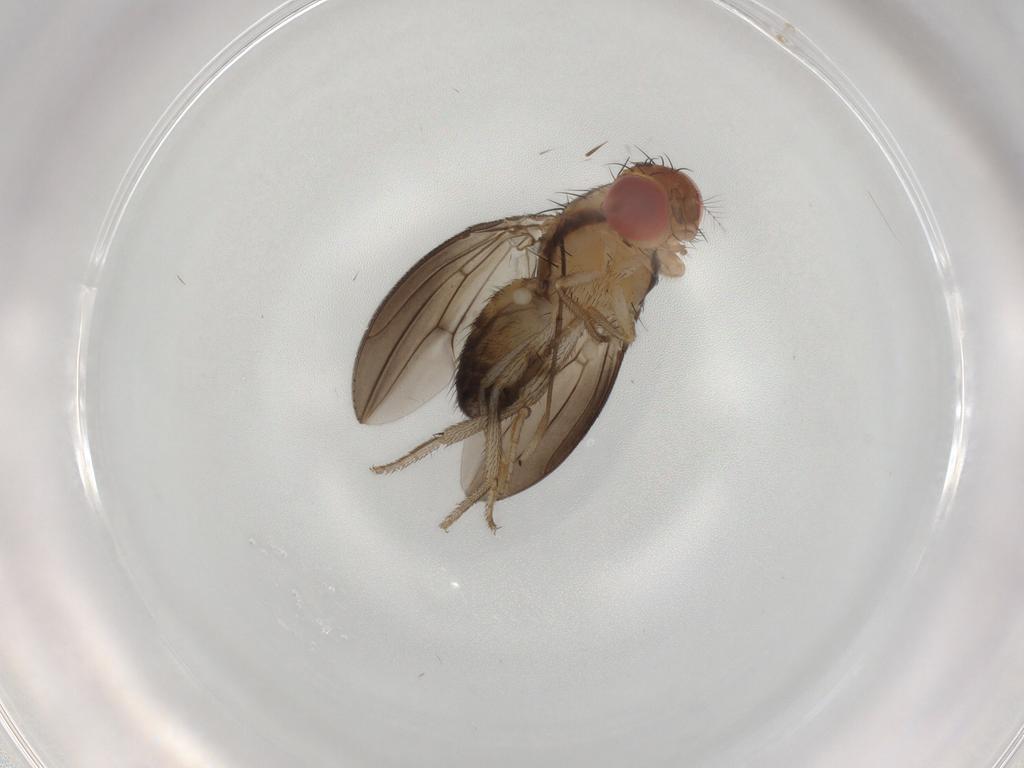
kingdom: Animalia
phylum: Arthropoda
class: Insecta
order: Diptera
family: Drosophilidae
